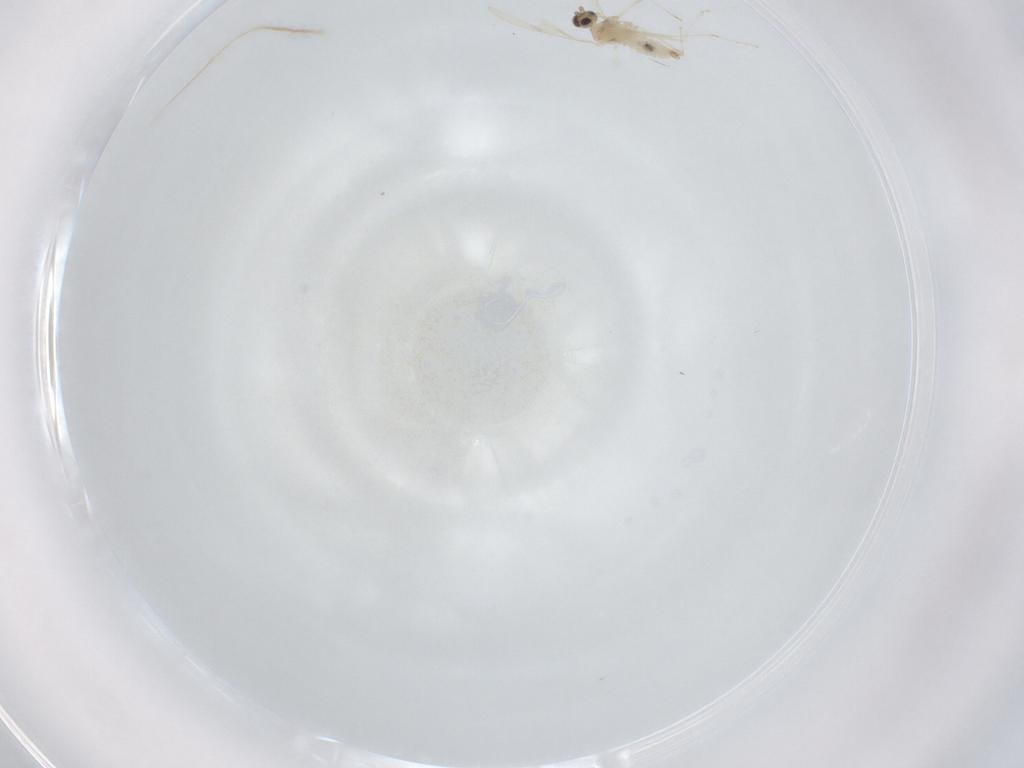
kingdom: Animalia
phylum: Arthropoda
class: Insecta
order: Diptera
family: Cecidomyiidae
